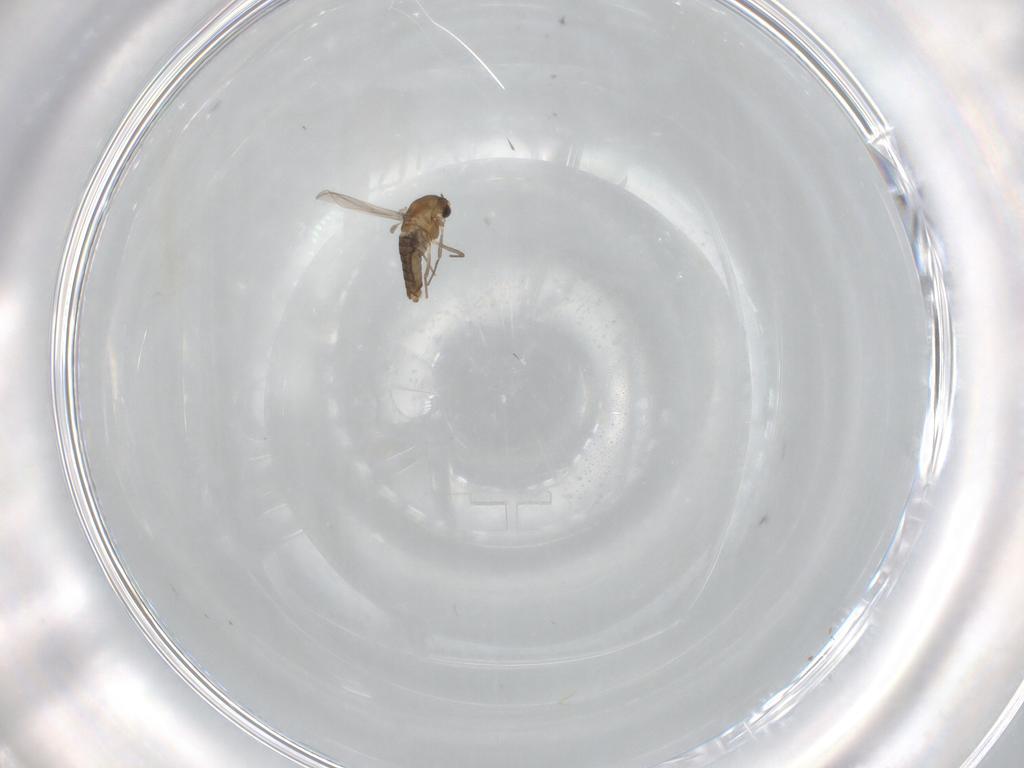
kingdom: Animalia
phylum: Arthropoda
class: Insecta
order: Diptera
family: Chironomidae
